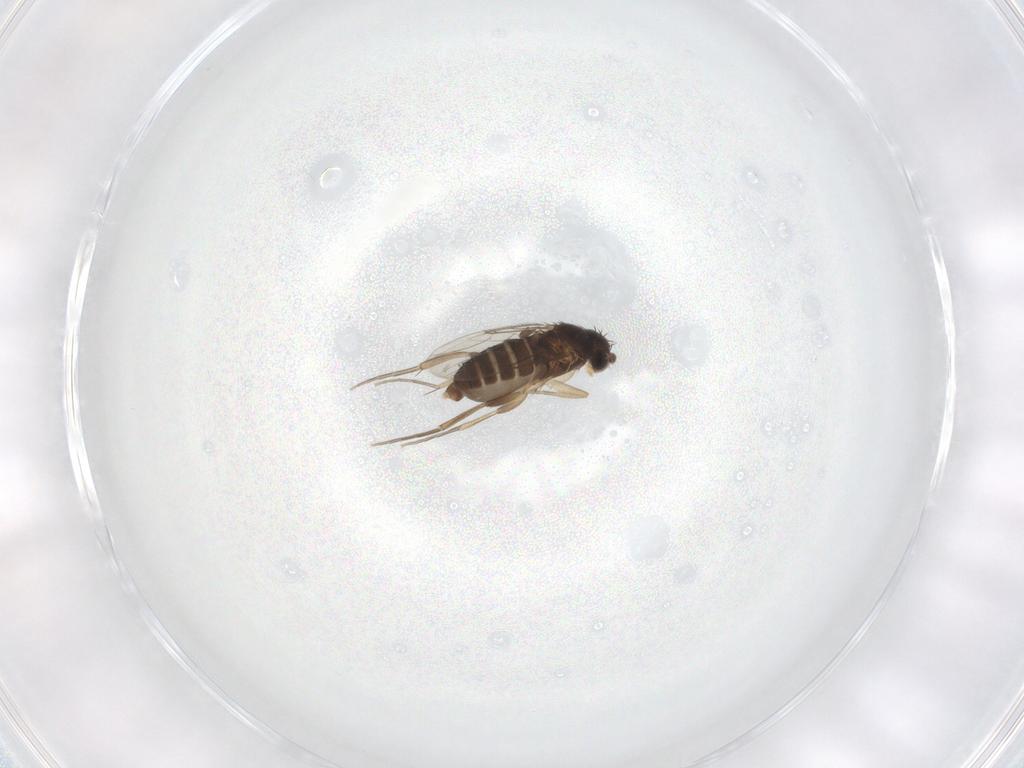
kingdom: Animalia
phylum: Arthropoda
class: Insecta
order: Diptera
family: Phoridae
